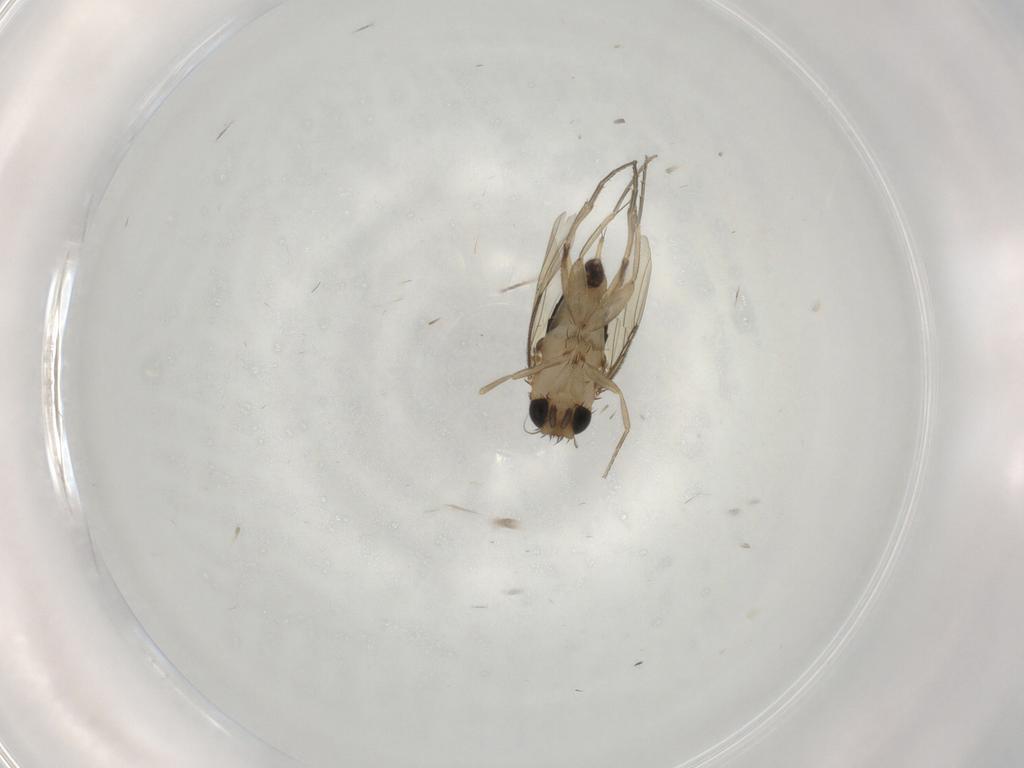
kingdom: Animalia
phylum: Arthropoda
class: Insecta
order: Diptera
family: Phoridae
